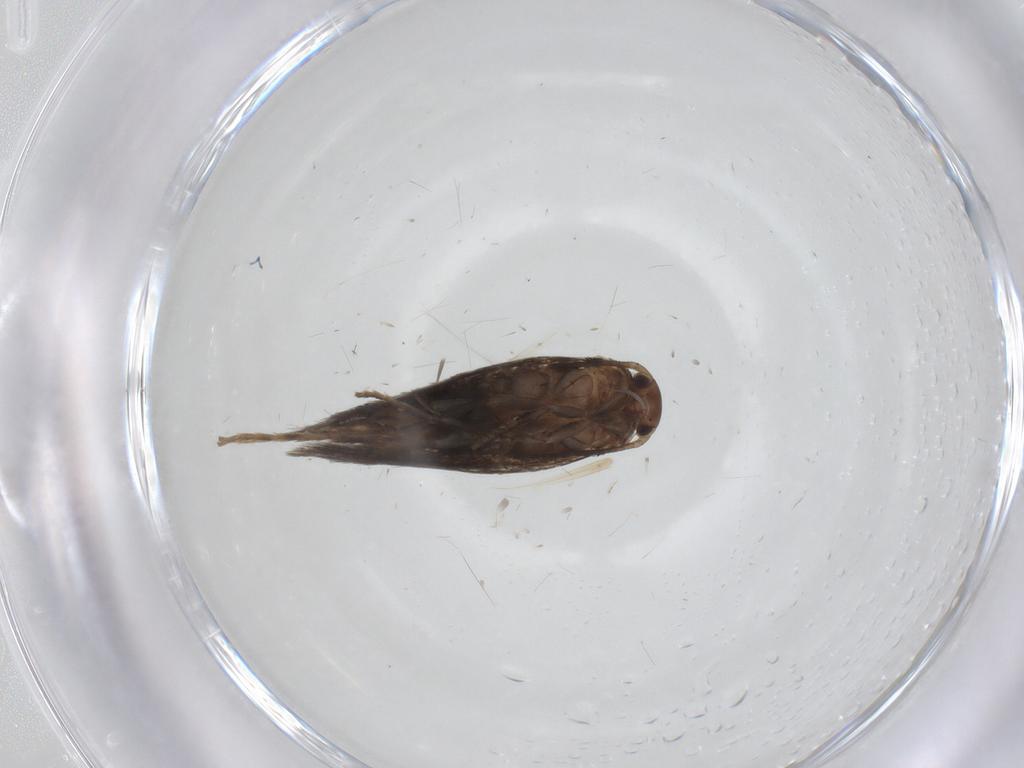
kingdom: Animalia
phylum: Arthropoda
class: Insecta
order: Lepidoptera
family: Elachistidae
